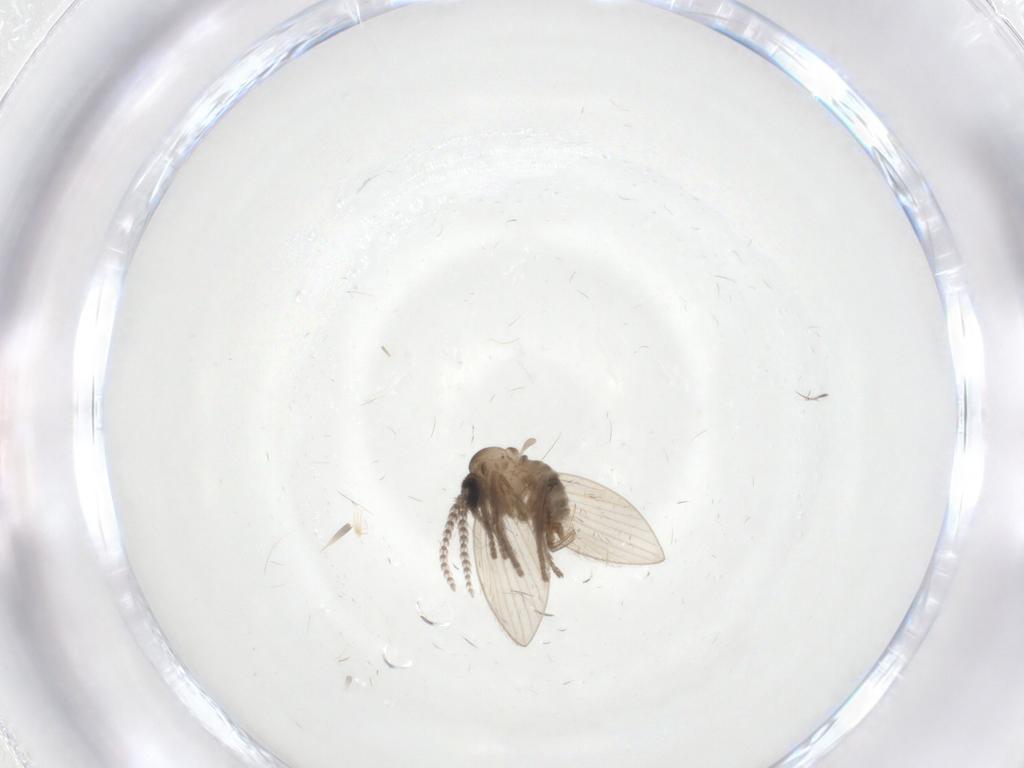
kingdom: Animalia
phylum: Arthropoda
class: Insecta
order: Diptera
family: Psychodidae
